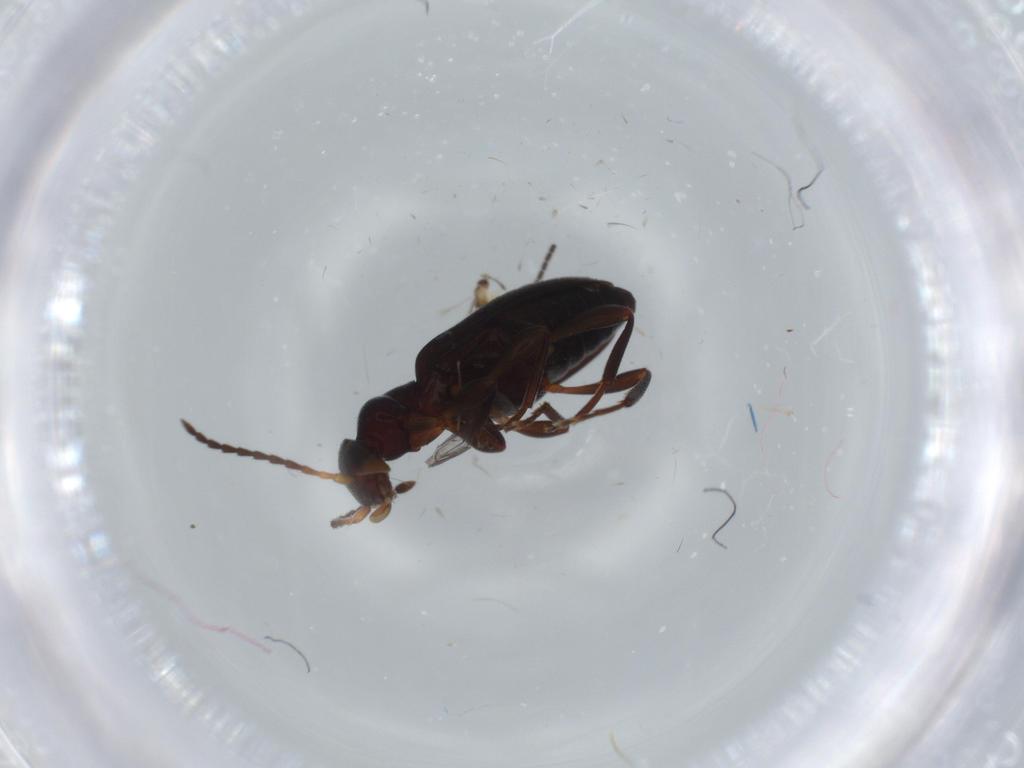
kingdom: Animalia
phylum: Arthropoda
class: Insecta
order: Coleoptera
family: Anthicidae
